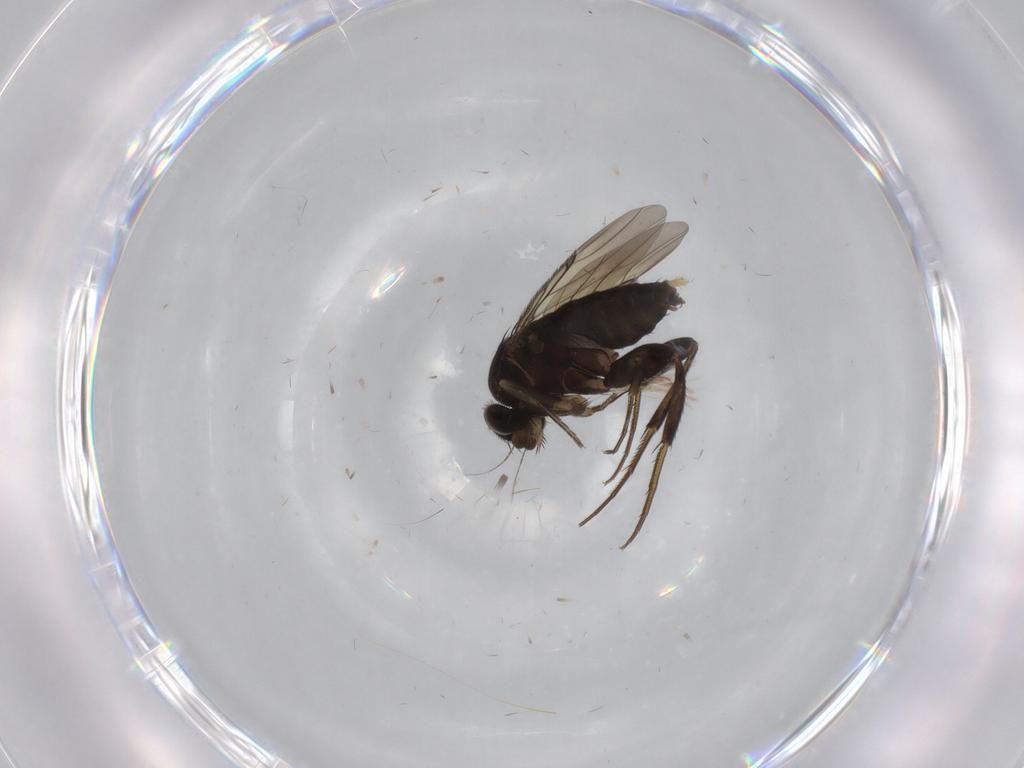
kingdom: Animalia
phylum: Arthropoda
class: Insecta
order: Diptera
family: Phoridae
